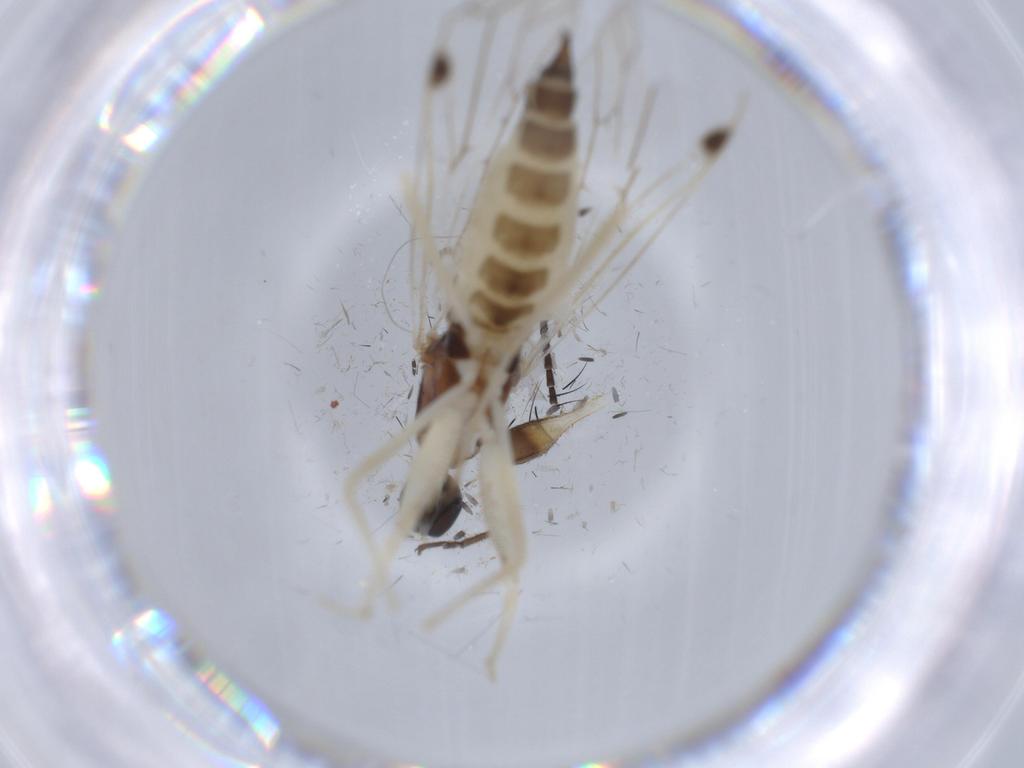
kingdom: Animalia
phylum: Arthropoda
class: Insecta
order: Diptera
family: Chironomidae
